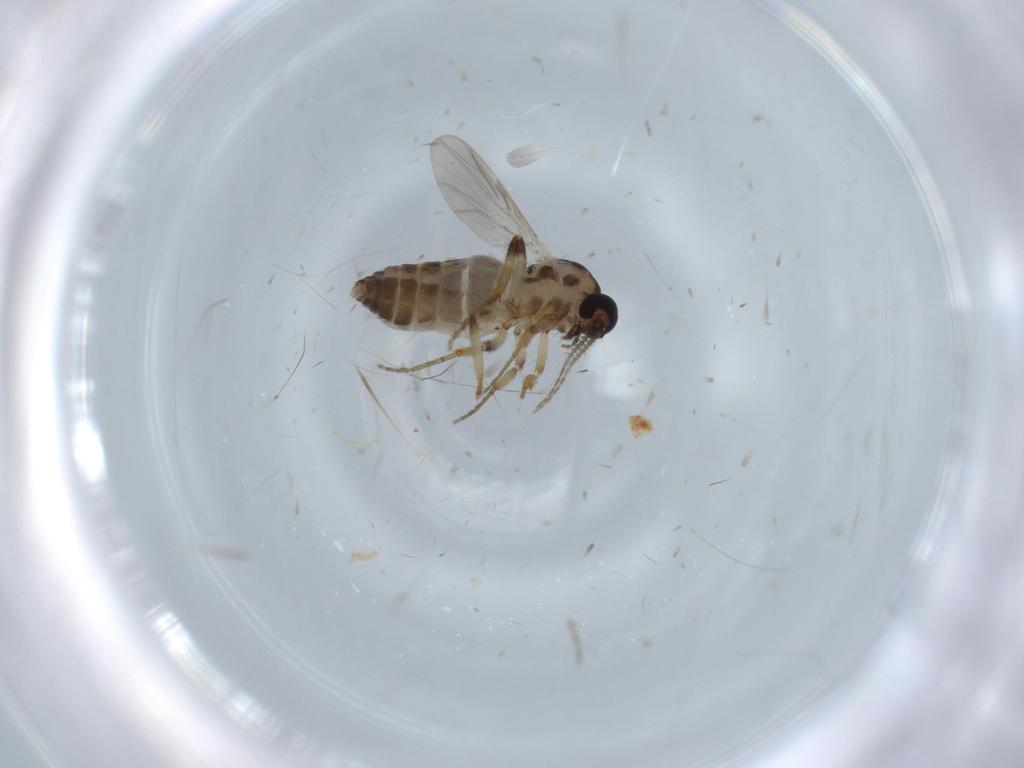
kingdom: Animalia
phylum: Arthropoda
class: Insecta
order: Diptera
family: Ceratopogonidae
